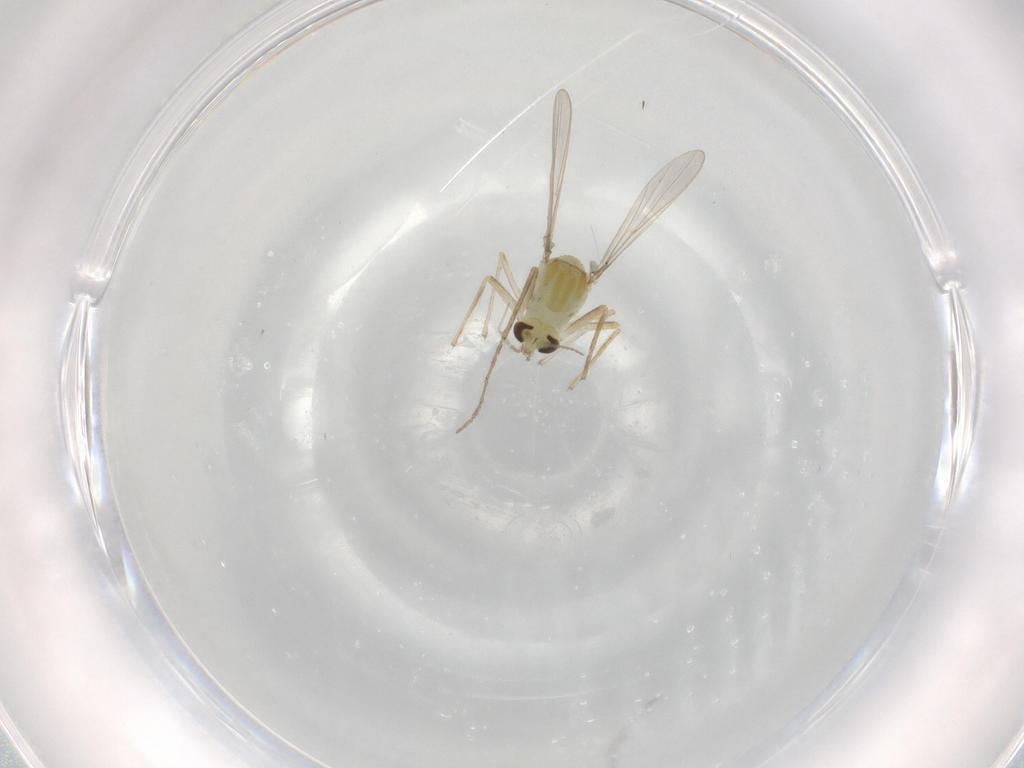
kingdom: Animalia
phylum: Arthropoda
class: Insecta
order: Diptera
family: Chironomidae
